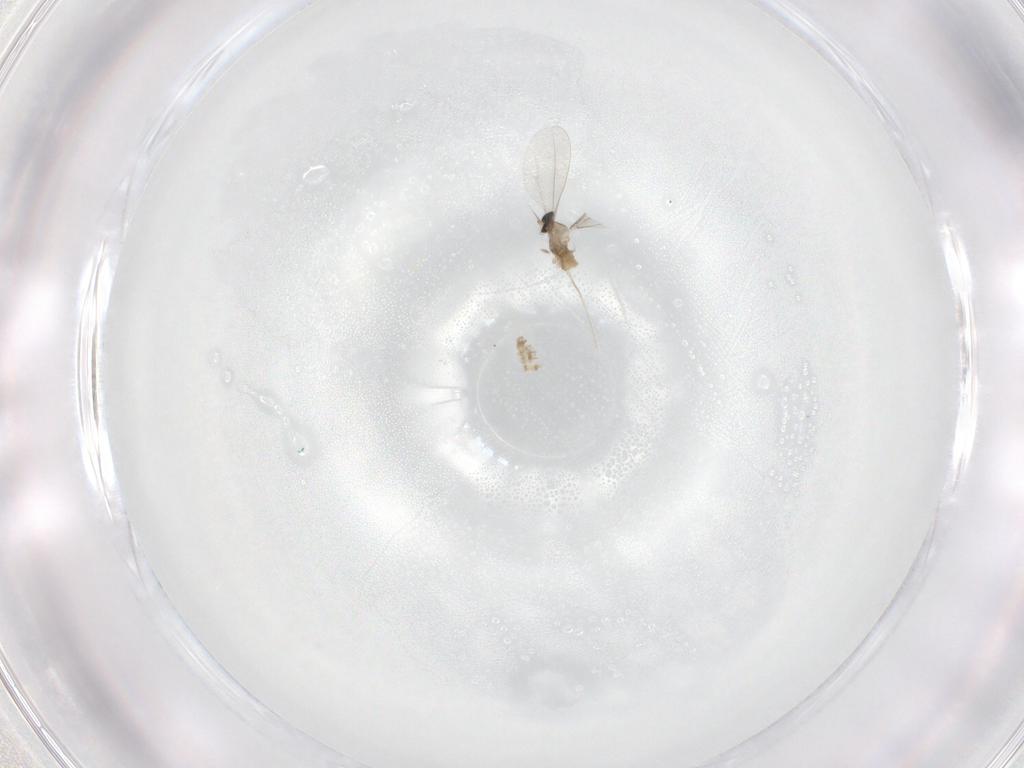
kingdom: Animalia
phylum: Arthropoda
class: Insecta
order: Diptera
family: Cecidomyiidae
